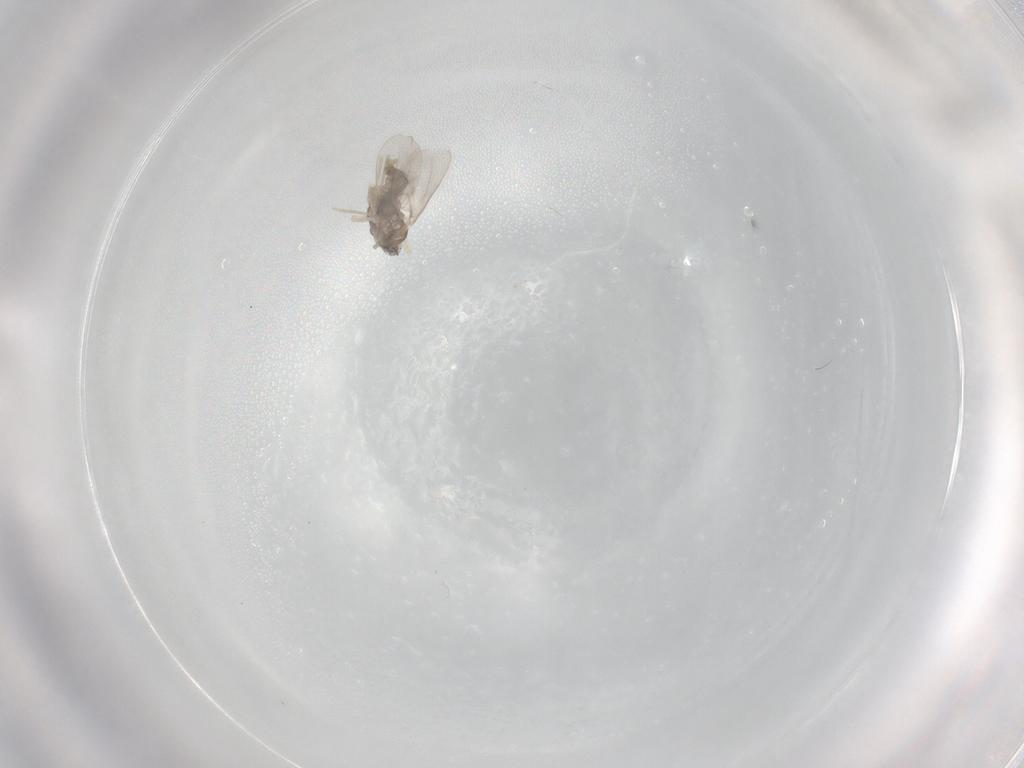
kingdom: Animalia
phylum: Arthropoda
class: Insecta
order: Diptera
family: Cecidomyiidae
